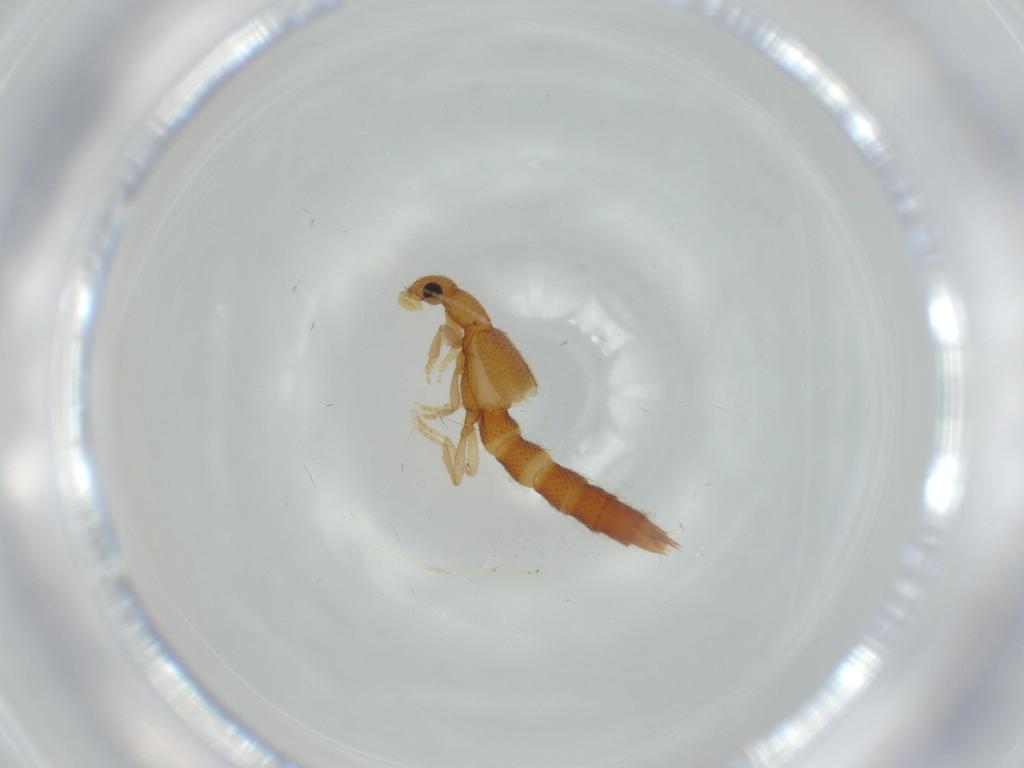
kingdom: Animalia
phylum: Arthropoda
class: Insecta
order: Coleoptera
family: Staphylinidae
